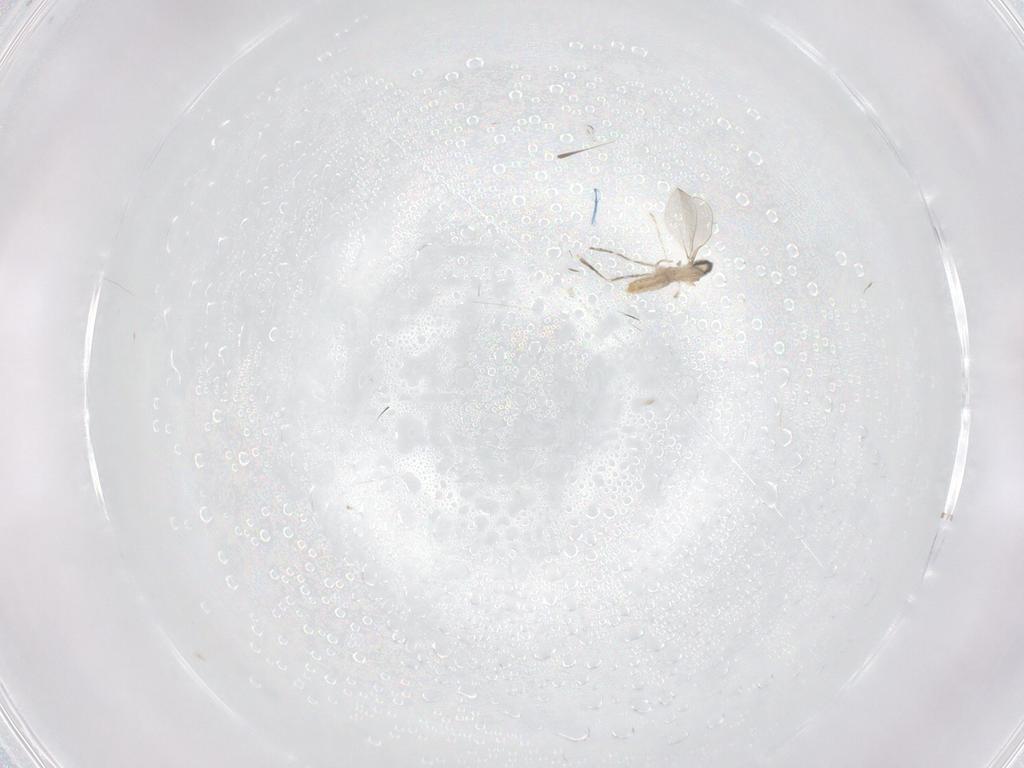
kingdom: Animalia
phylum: Arthropoda
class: Insecta
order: Diptera
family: Cecidomyiidae
